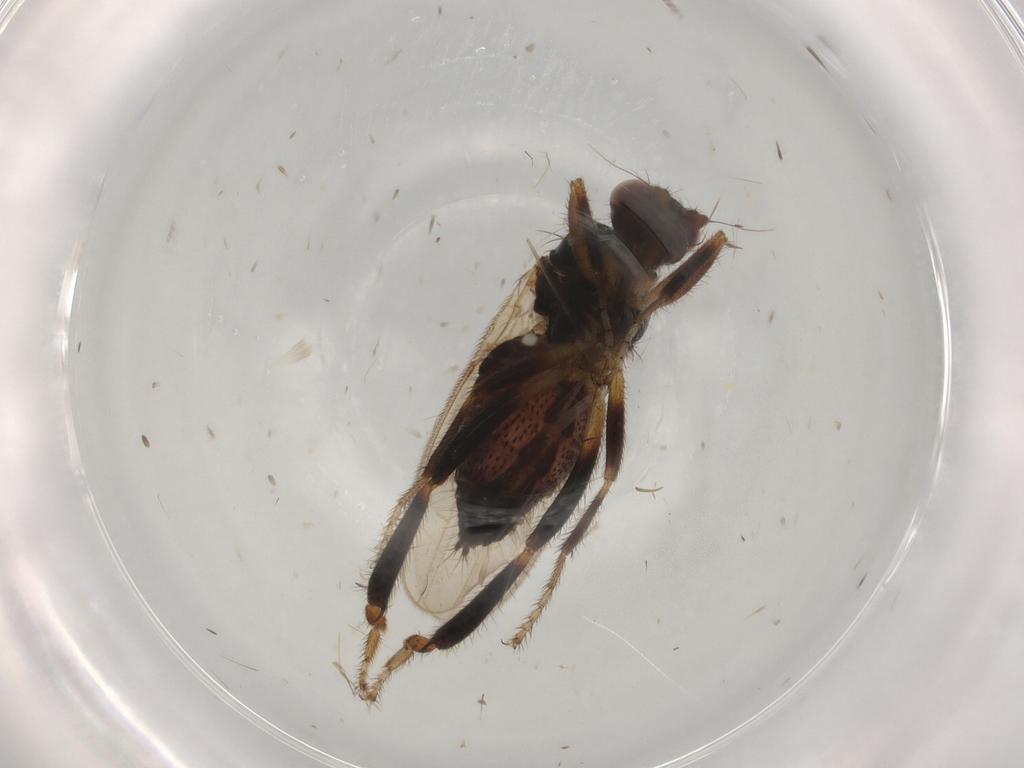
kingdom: Animalia
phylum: Arthropoda
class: Insecta
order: Diptera
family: Sphaeroceridae
